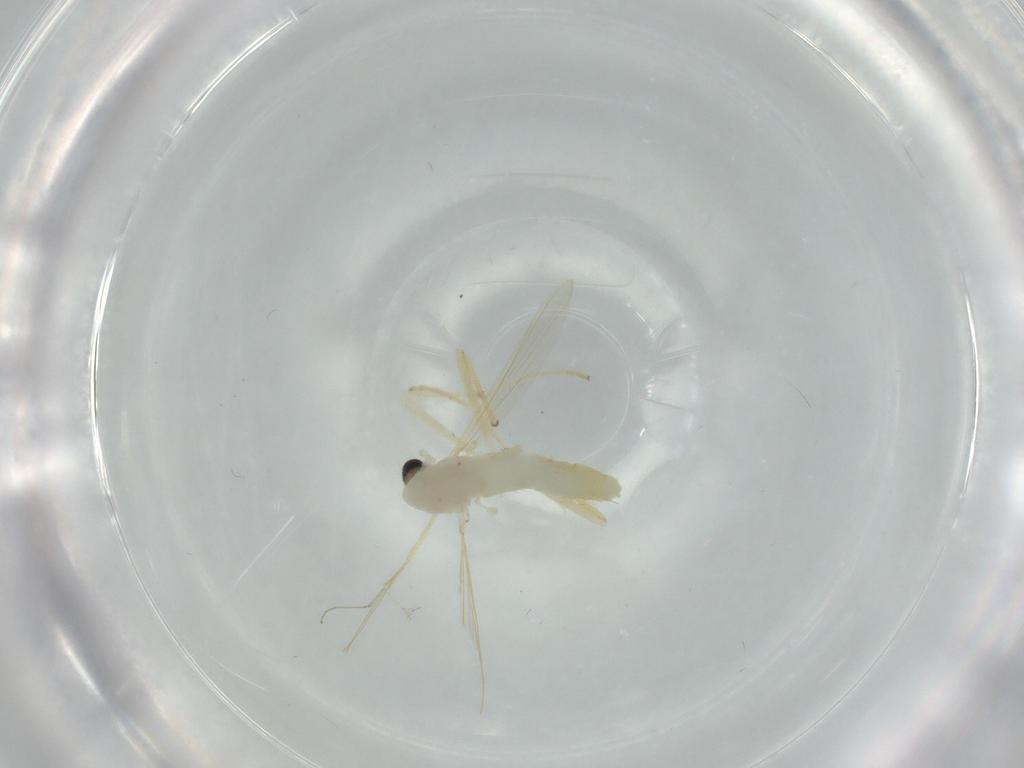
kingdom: Animalia
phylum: Arthropoda
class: Insecta
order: Diptera
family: Chironomidae
